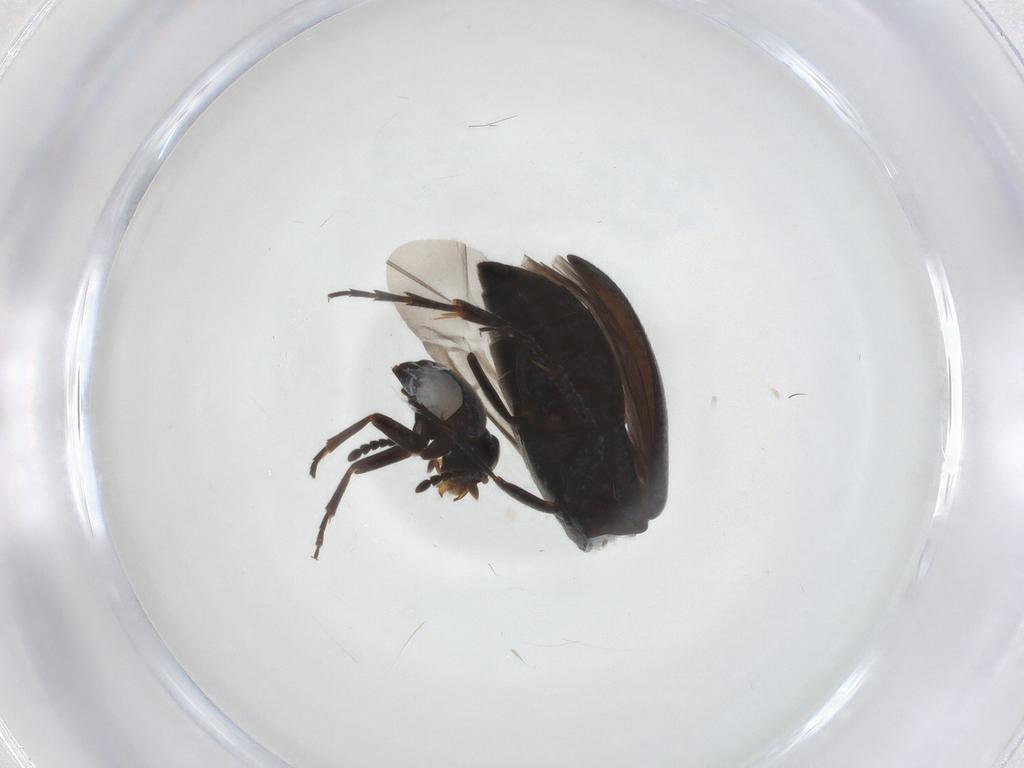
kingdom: Animalia
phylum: Arthropoda
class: Insecta
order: Coleoptera
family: Scraptiidae
